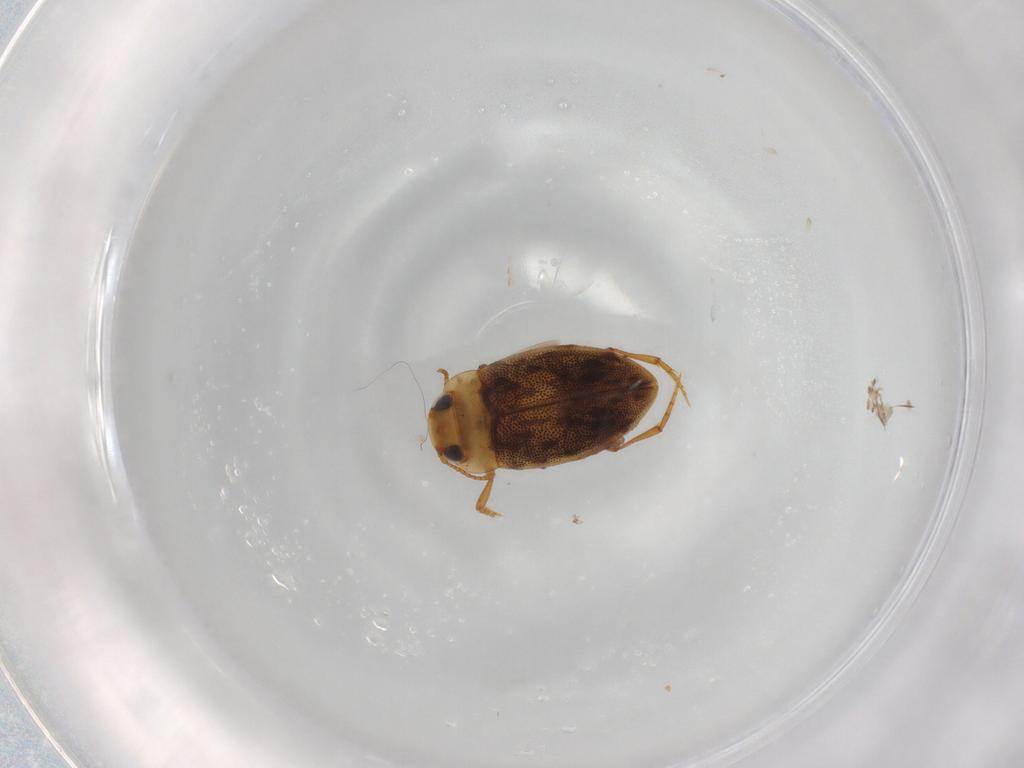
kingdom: Animalia
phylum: Arthropoda
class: Insecta
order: Coleoptera
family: Dytiscidae
